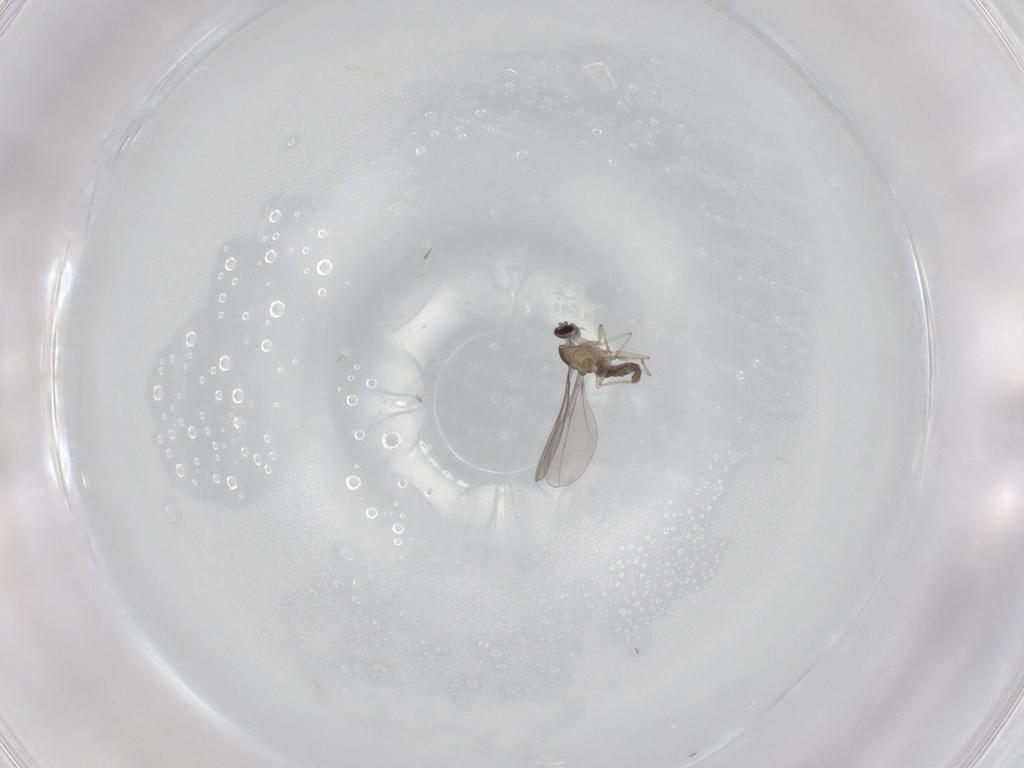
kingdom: Animalia
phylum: Arthropoda
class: Insecta
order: Diptera
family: Cecidomyiidae
